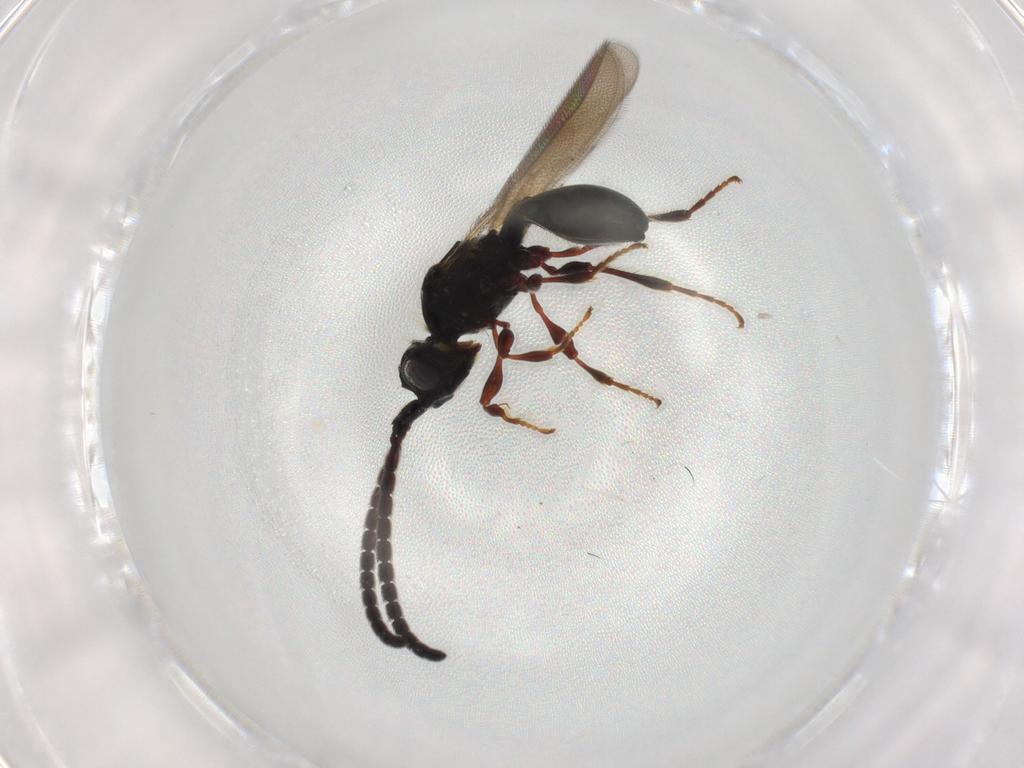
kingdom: Animalia
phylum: Arthropoda
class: Insecta
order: Hymenoptera
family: Diapriidae
